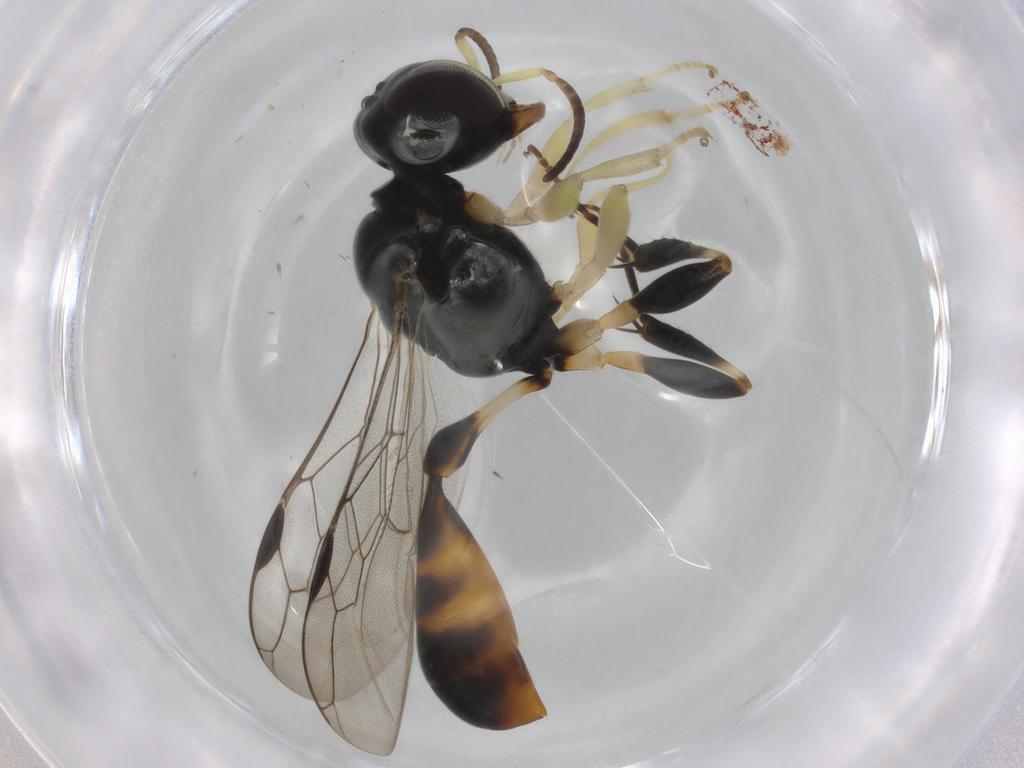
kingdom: Animalia
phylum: Arthropoda
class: Insecta
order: Hymenoptera
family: Crabronidae
